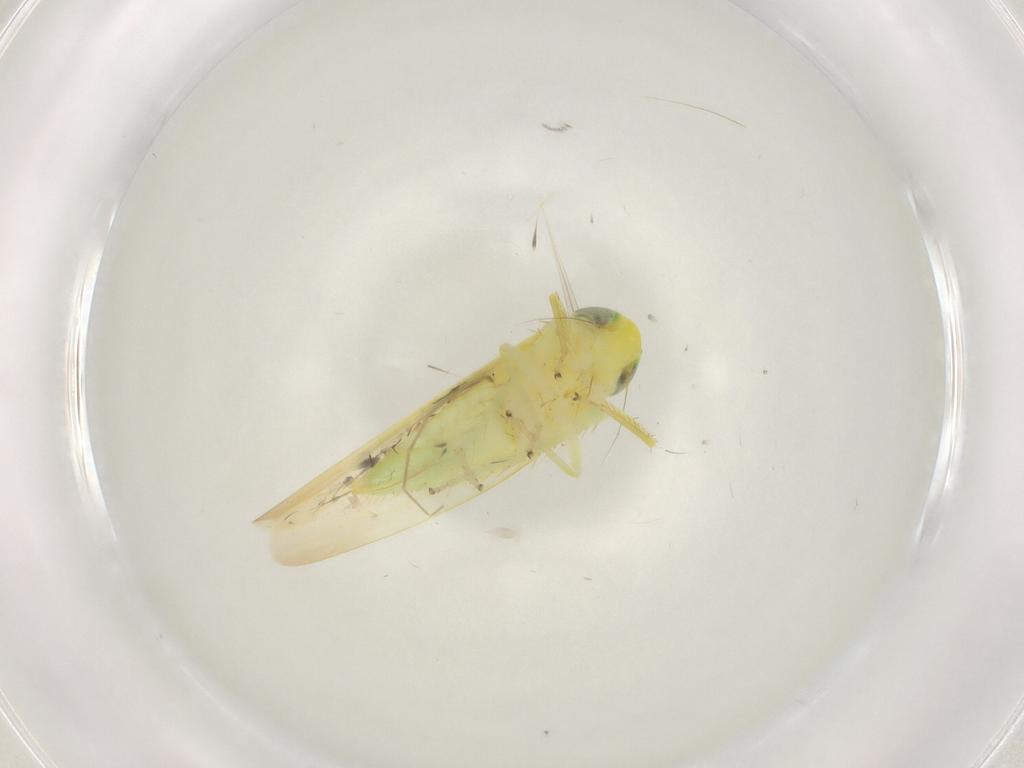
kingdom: Animalia
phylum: Arthropoda
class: Insecta
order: Hemiptera
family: Cicadellidae
